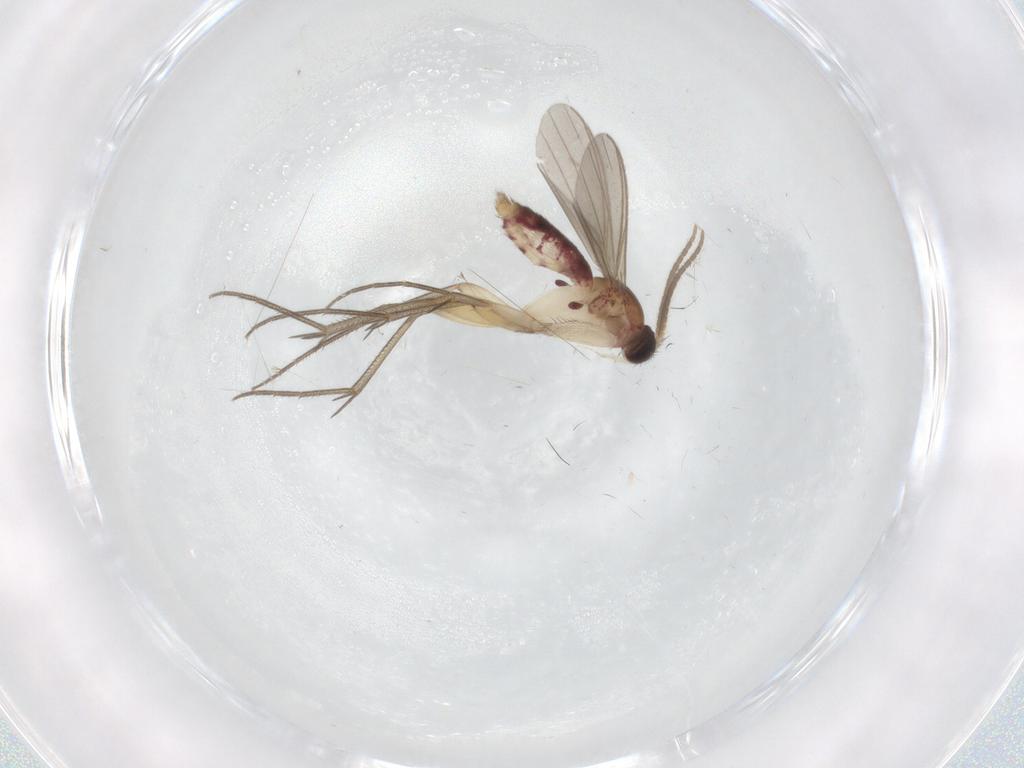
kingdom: Animalia
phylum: Arthropoda
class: Insecta
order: Diptera
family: Mycetophilidae
